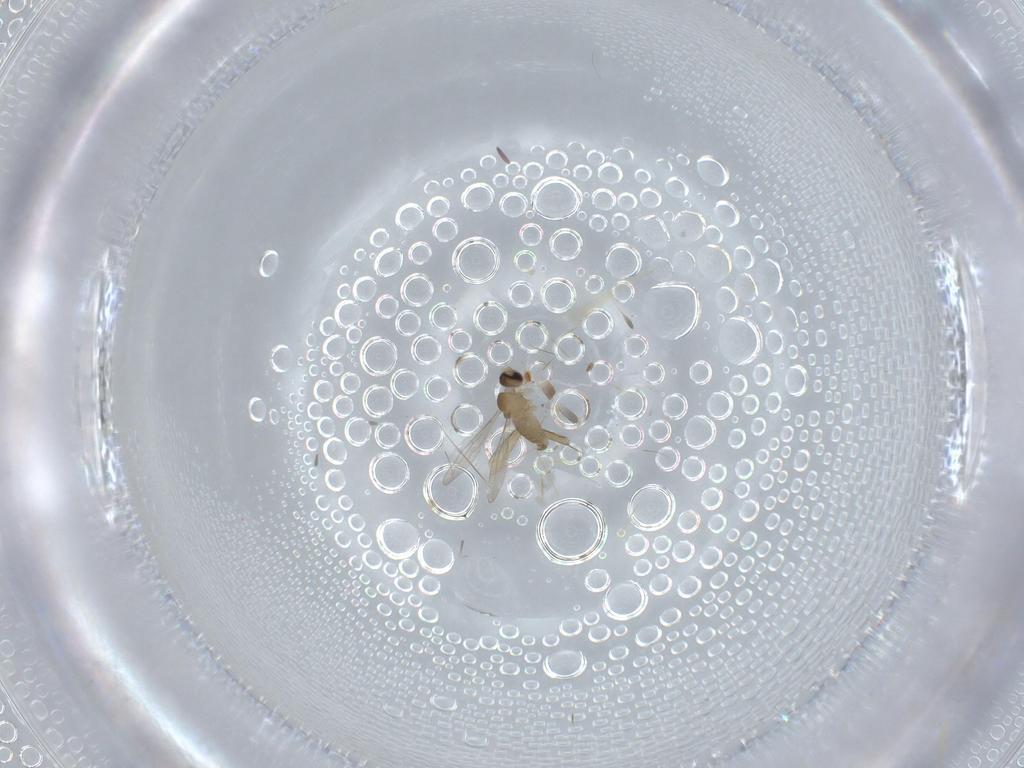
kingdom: Animalia
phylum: Arthropoda
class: Insecta
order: Diptera
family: Cecidomyiidae
